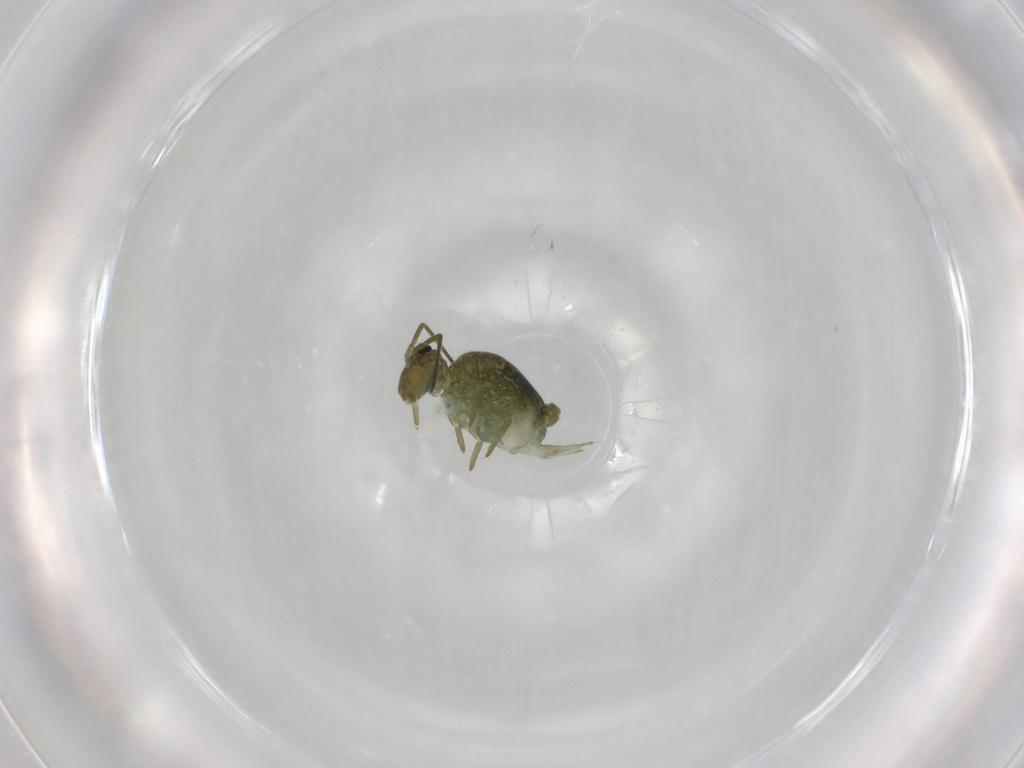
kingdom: Animalia
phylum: Arthropoda
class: Collembola
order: Symphypleona
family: Sminthuridae
